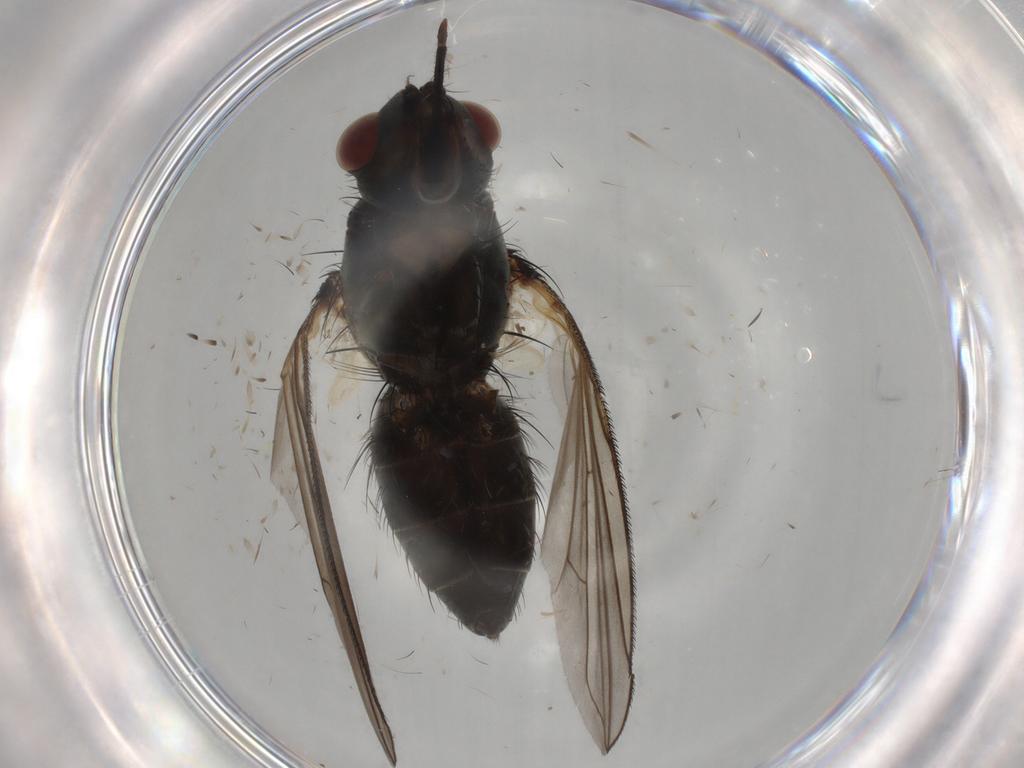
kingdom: Animalia
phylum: Arthropoda
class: Insecta
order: Diptera
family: Tachinidae
